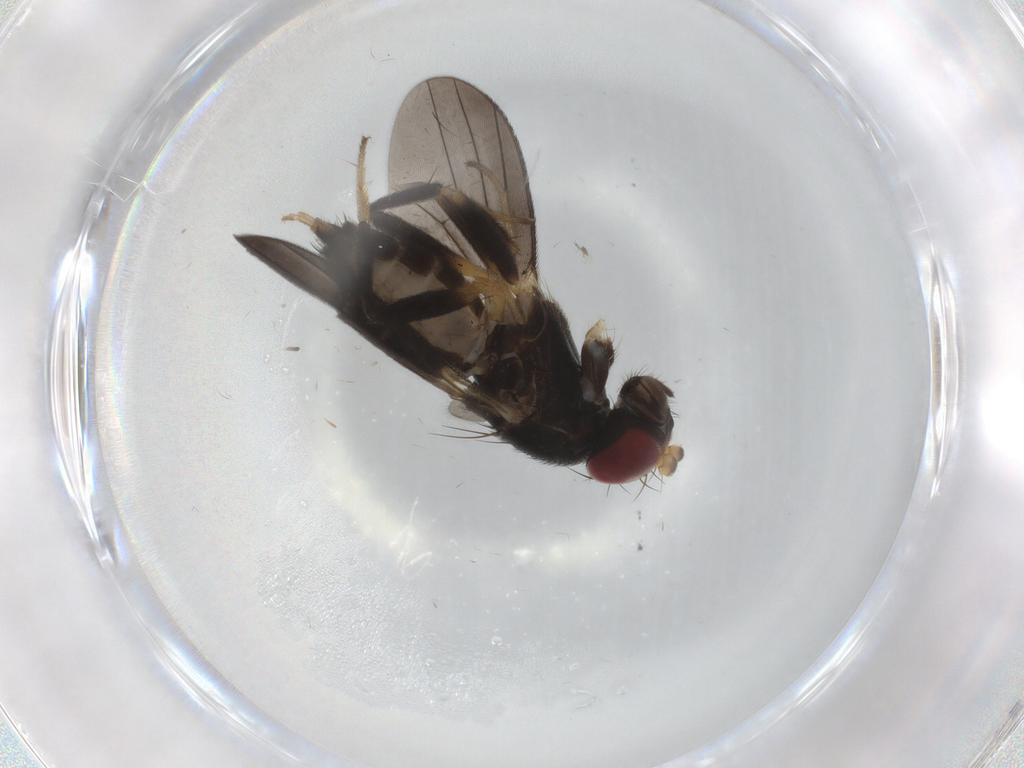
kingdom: Animalia
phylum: Arthropoda
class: Insecta
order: Diptera
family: Clusiidae
